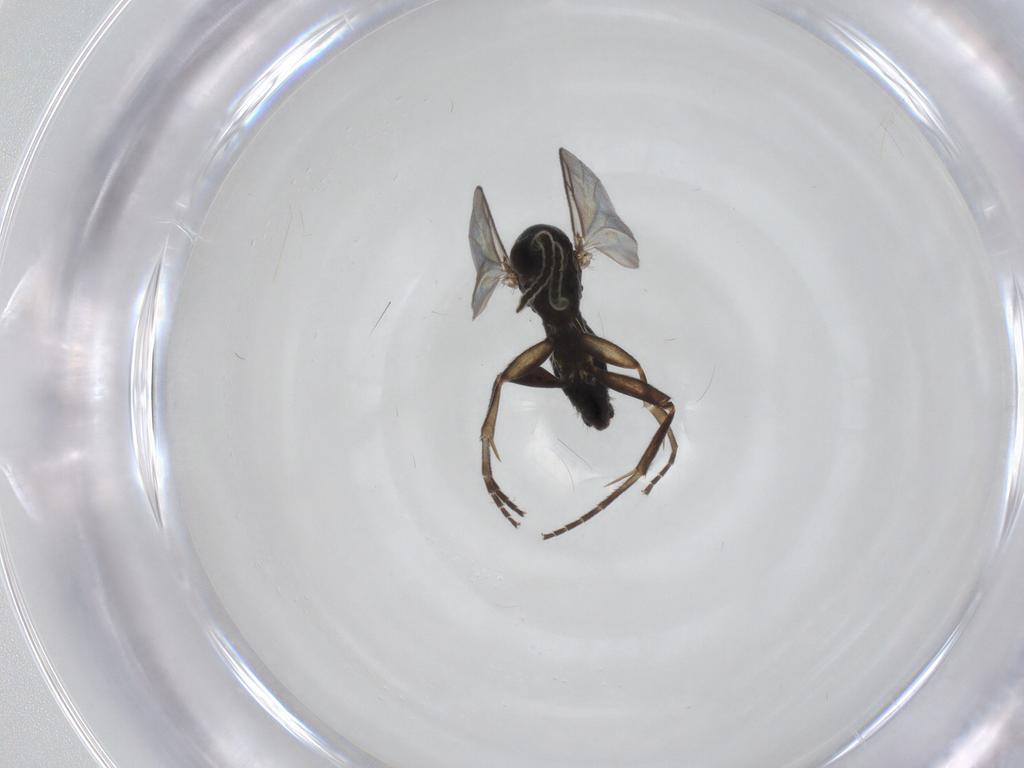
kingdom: Animalia
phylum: Arthropoda
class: Insecta
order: Diptera
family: Mycetophilidae
